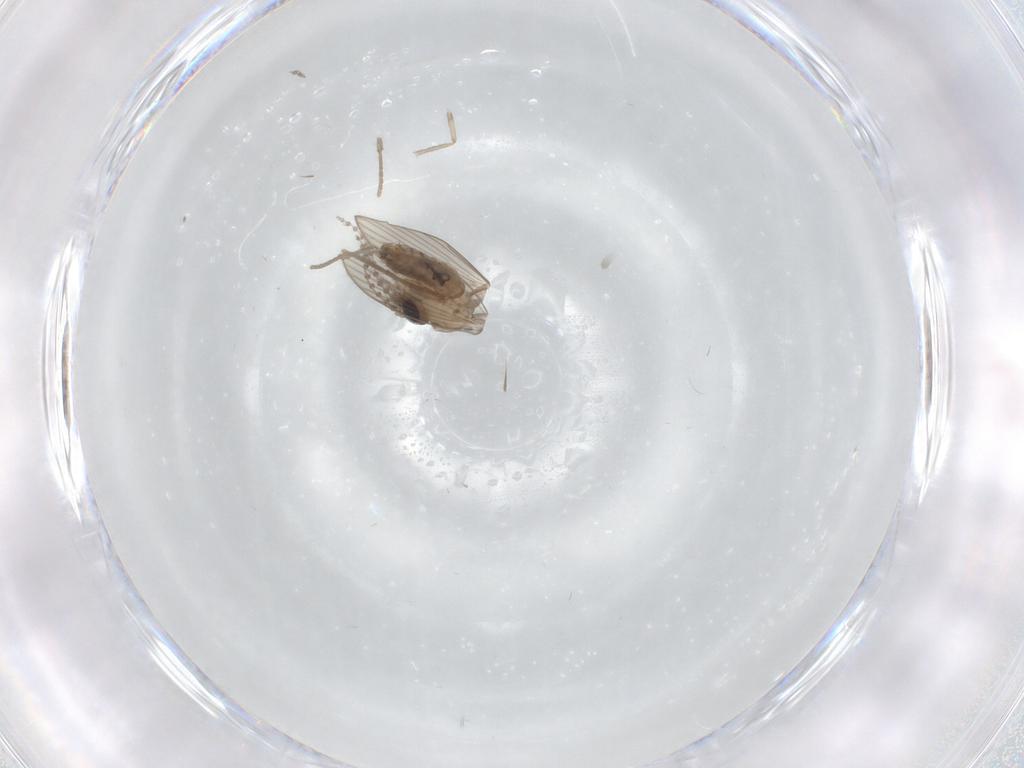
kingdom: Animalia
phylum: Arthropoda
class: Insecta
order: Diptera
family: Psychodidae
